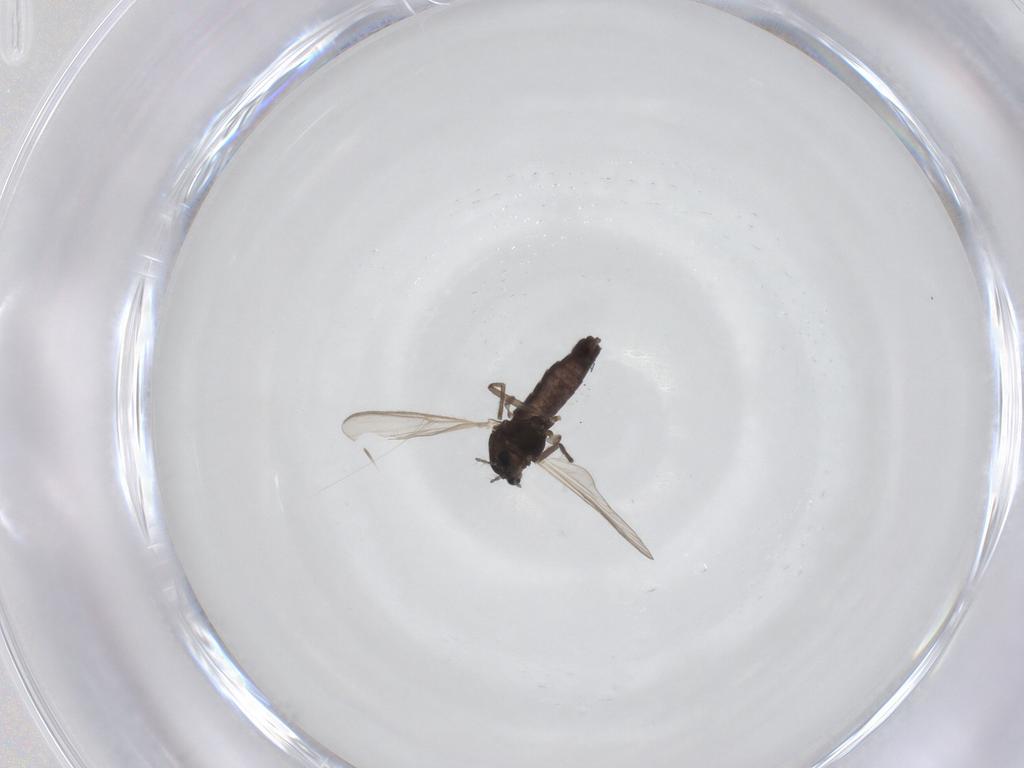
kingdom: Animalia
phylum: Arthropoda
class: Insecta
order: Diptera
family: Chironomidae
